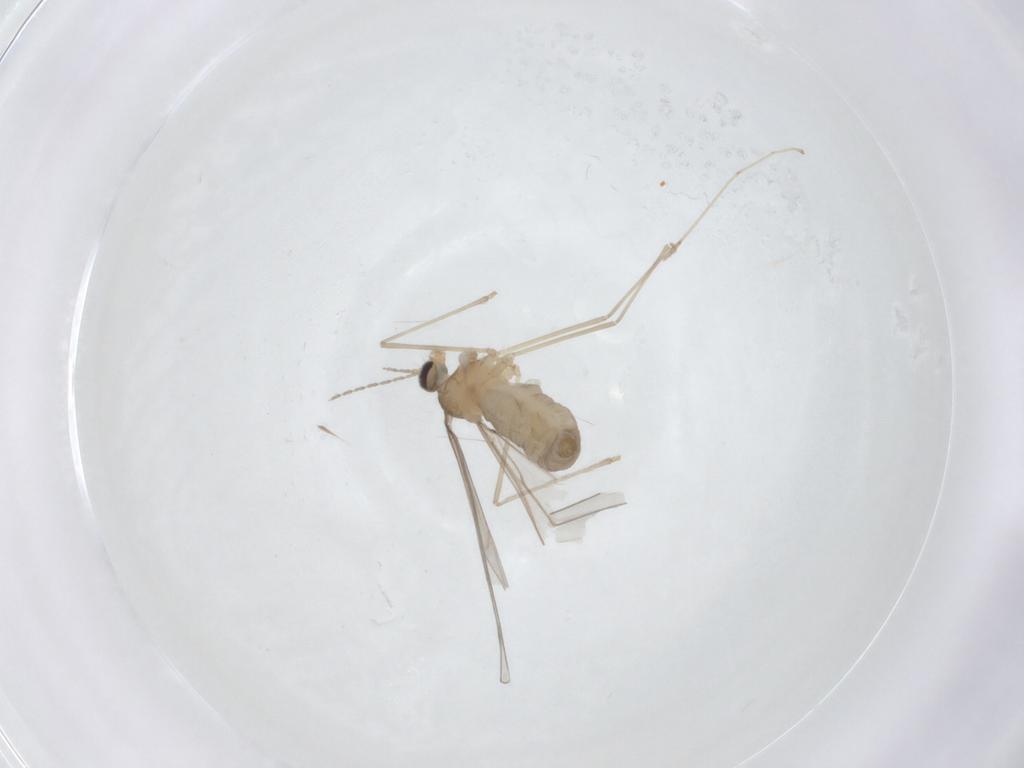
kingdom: Animalia
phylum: Arthropoda
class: Insecta
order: Diptera
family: Cecidomyiidae
